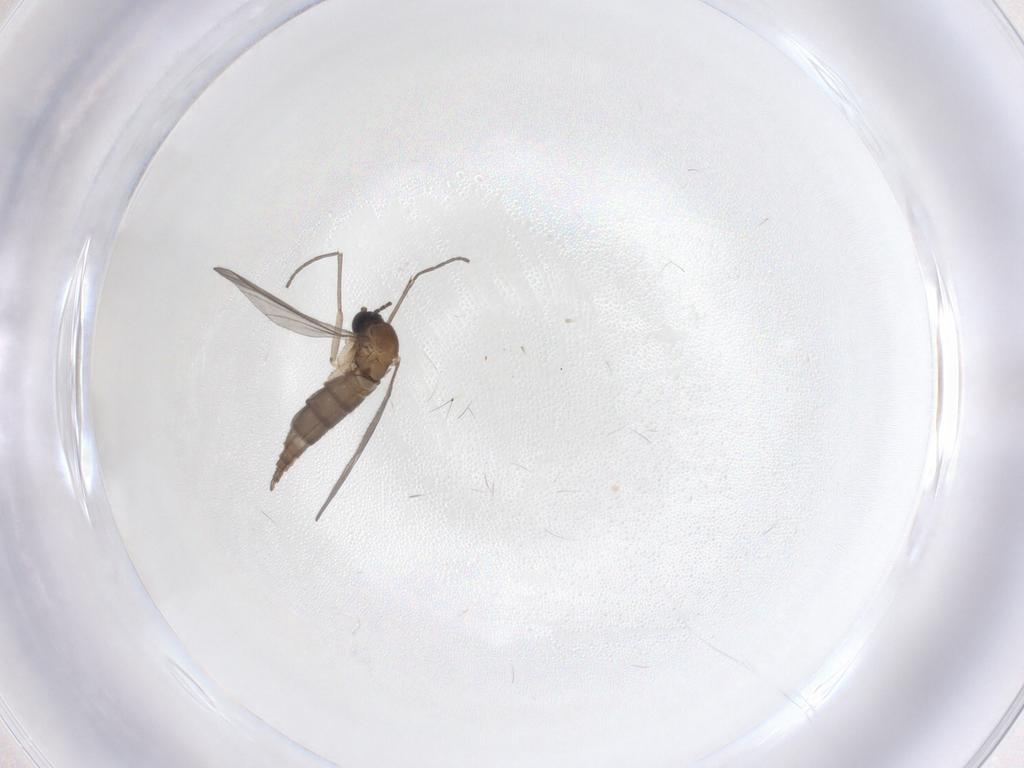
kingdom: Animalia
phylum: Arthropoda
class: Insecta
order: Diptera
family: Sciaridae
